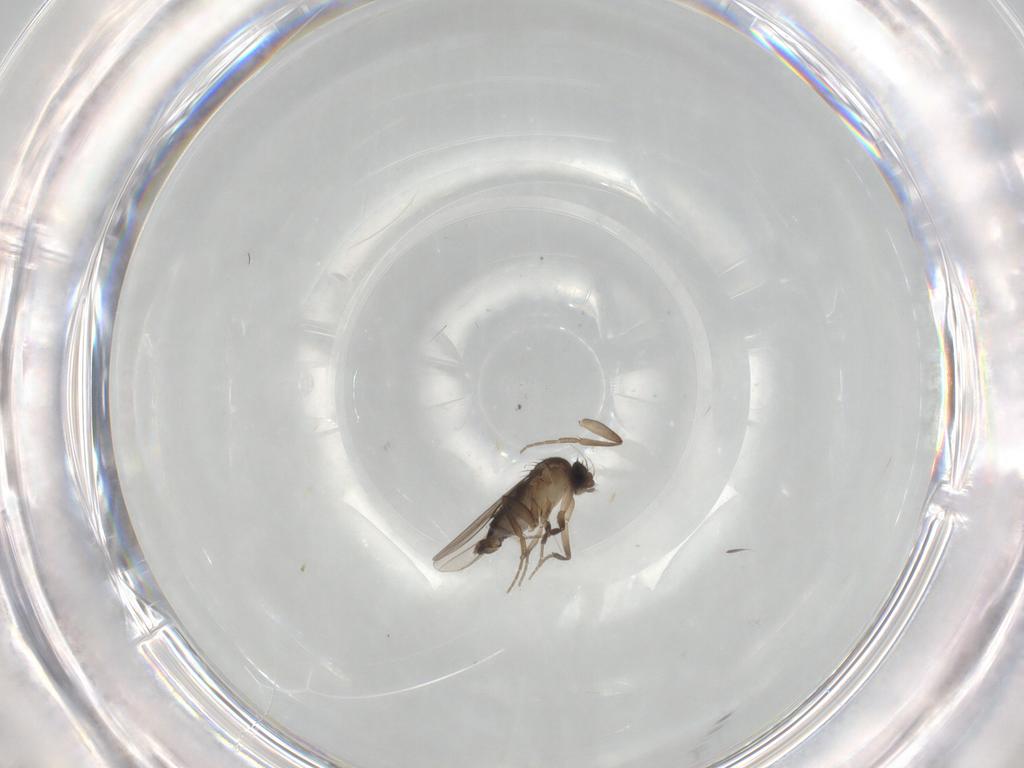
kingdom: Animalia
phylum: Arthropoda
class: Insecta
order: Diptera
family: Phoridae
